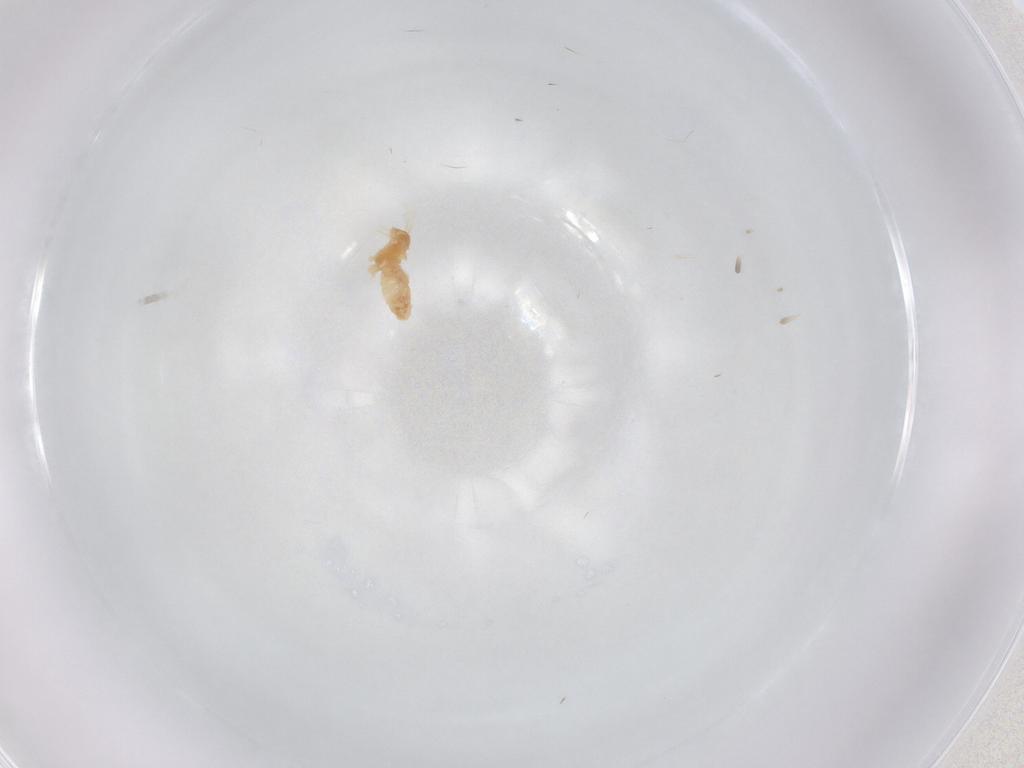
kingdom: Animalia
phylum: Arthropoda
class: Insecta
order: Diptera
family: Cecidomyiidae
